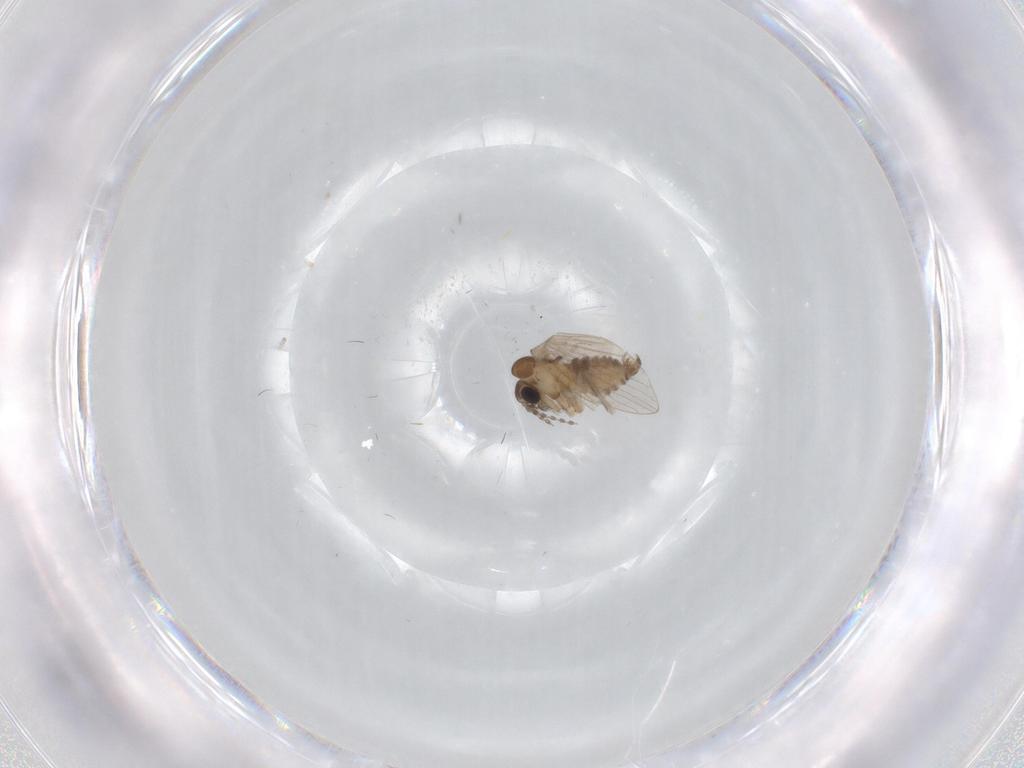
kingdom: Animalia
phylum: Arthropoda
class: Insecta
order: Diptera
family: Psychodidae
